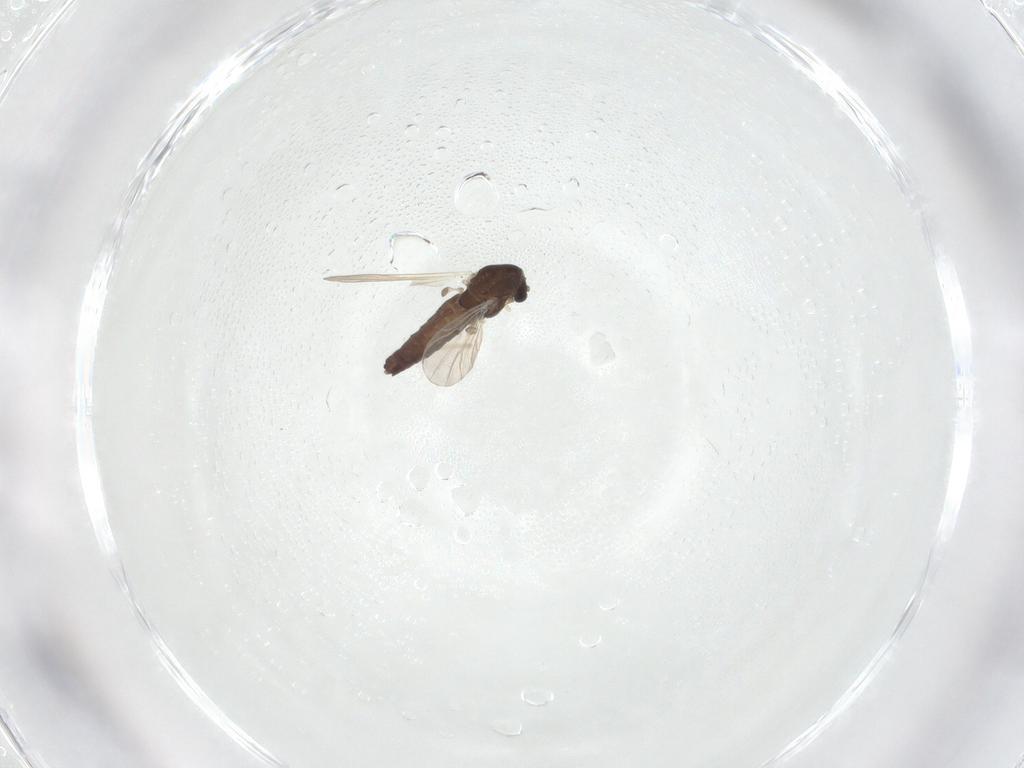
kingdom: Animalia
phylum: Arthropoda
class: Insecta
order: Diptera
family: Chironomidae
